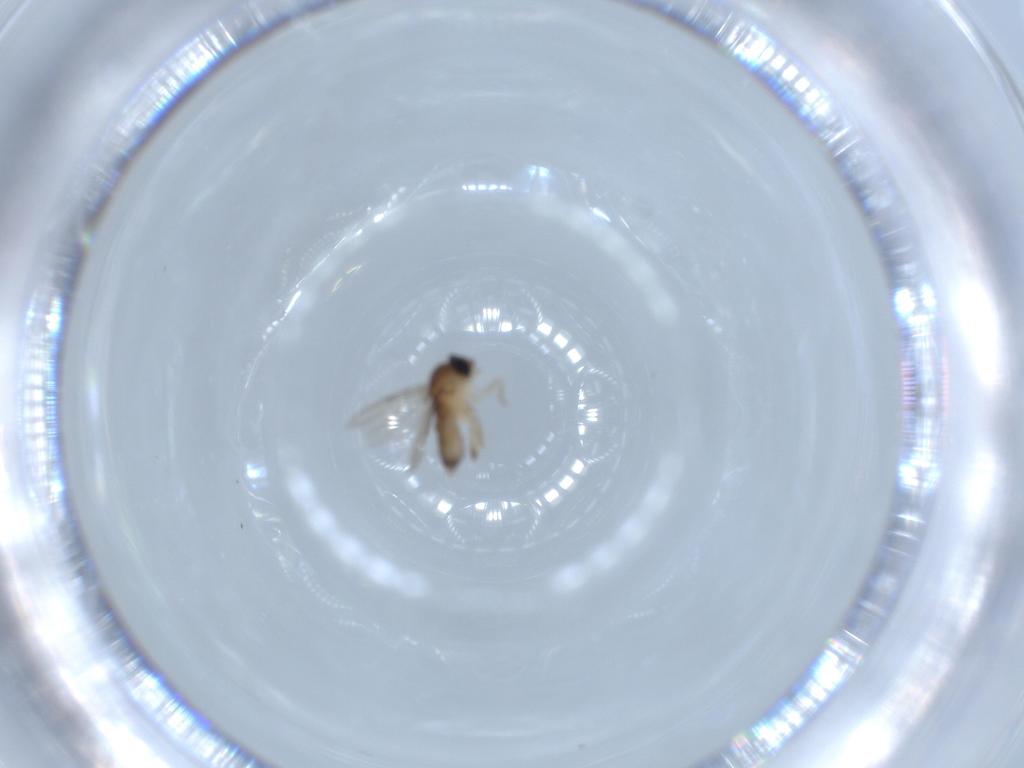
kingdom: Animalia
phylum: Arthropoda
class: Insecta
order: Diptera
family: Phoridae
